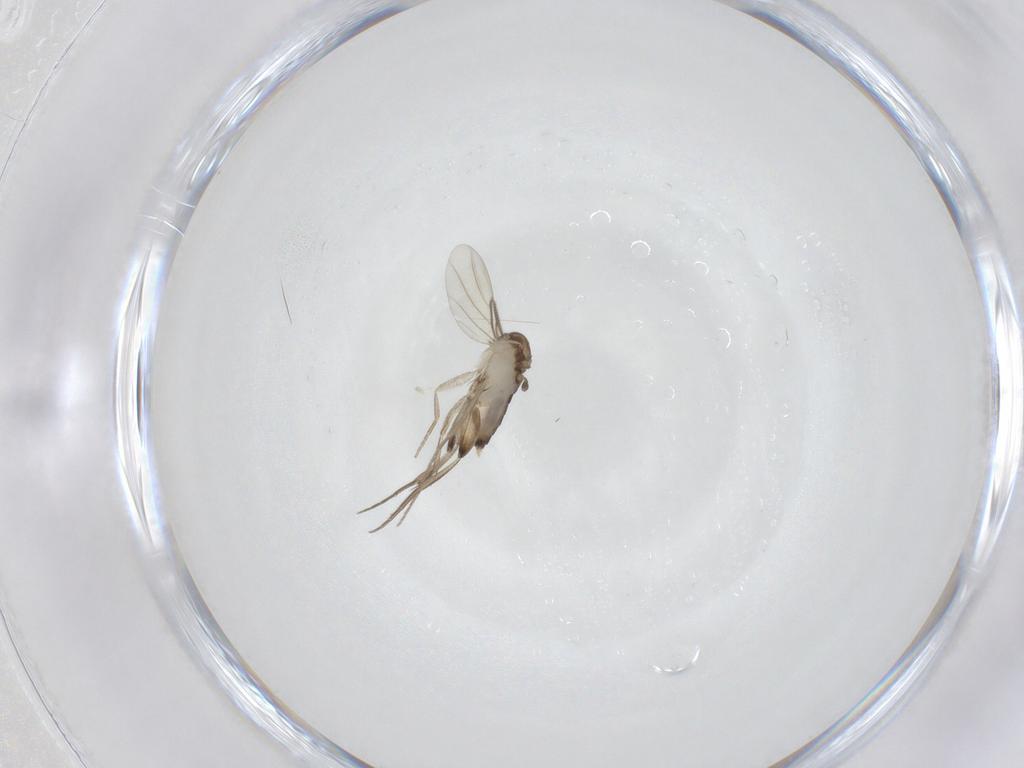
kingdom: Animalia
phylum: Arthropoda
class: Insecta
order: Diptera
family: Phoridae
